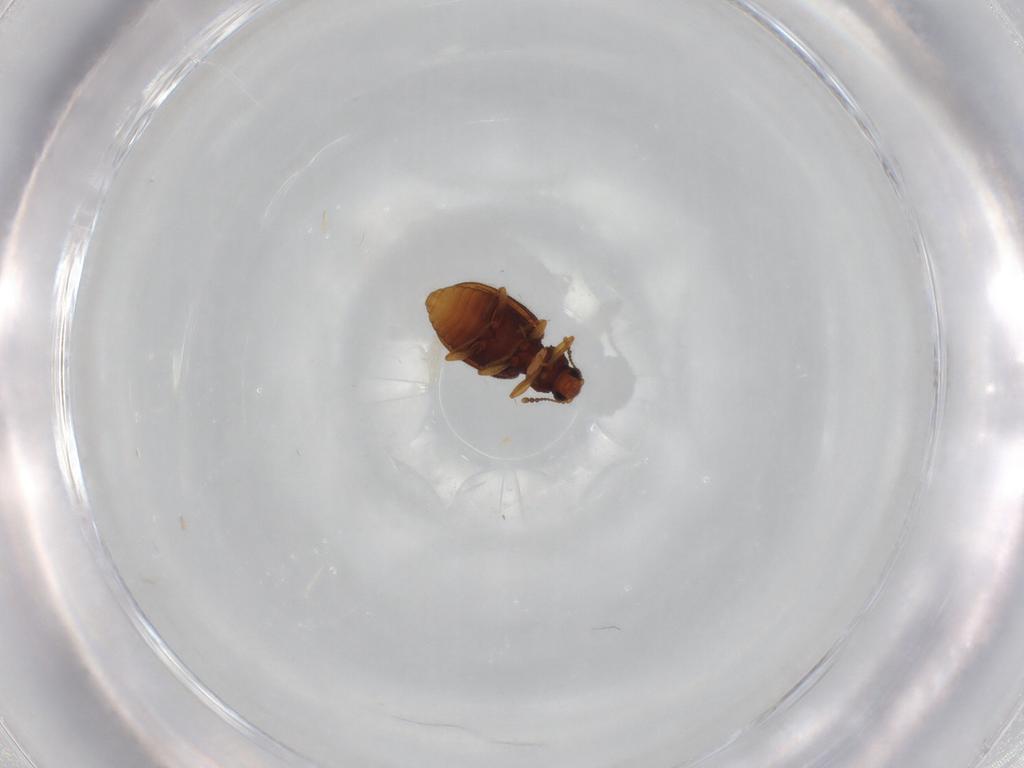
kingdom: Animalia
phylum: Arthropoda
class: Insecta
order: Coleoptera
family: Latridiidae
